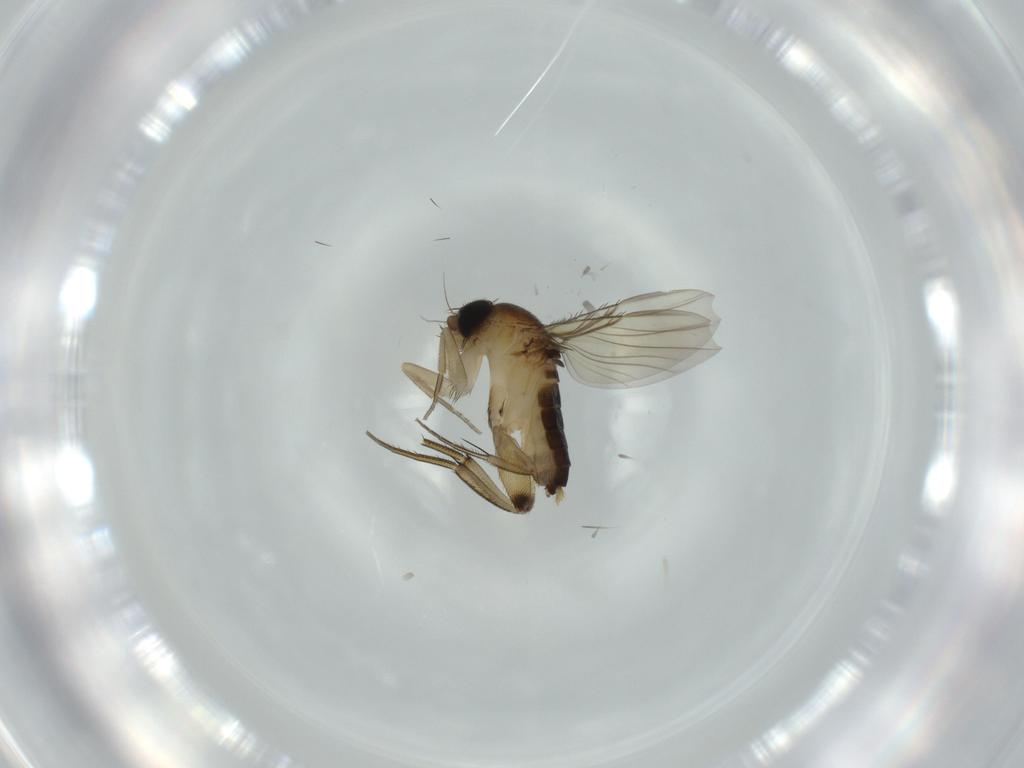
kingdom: Animalia
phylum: Arthropoda
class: Insecta
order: Diptera
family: Phoridae
